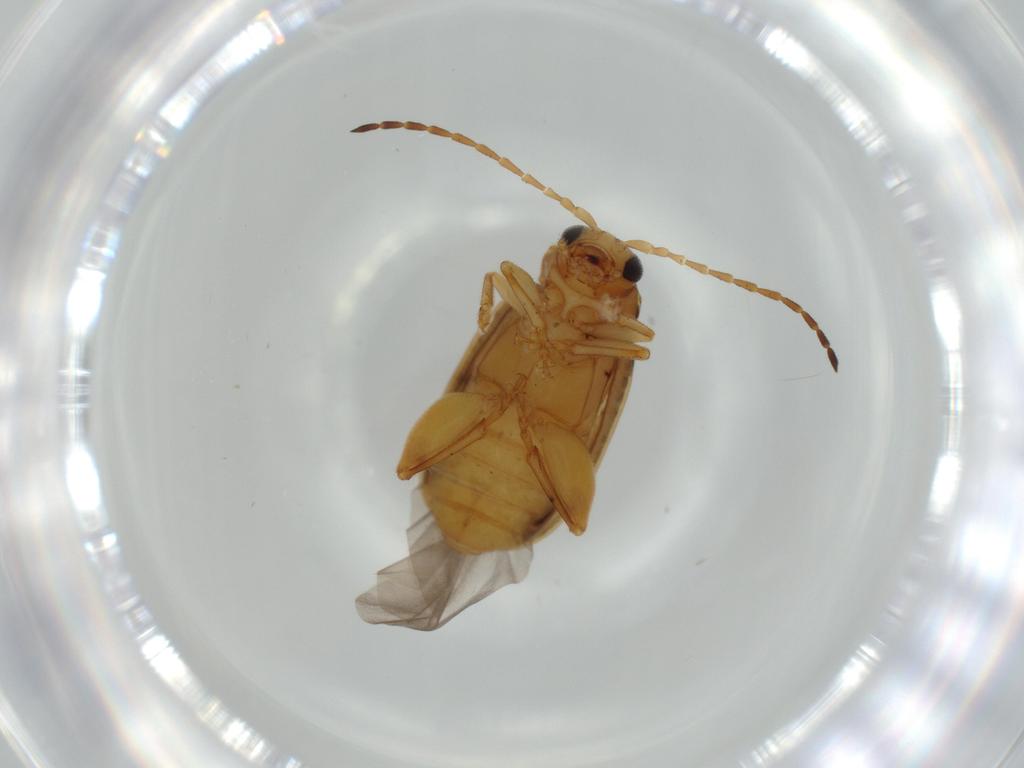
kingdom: Animalia
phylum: Arthropoda
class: Insecta
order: Coleoptera
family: Chrysomelidae
